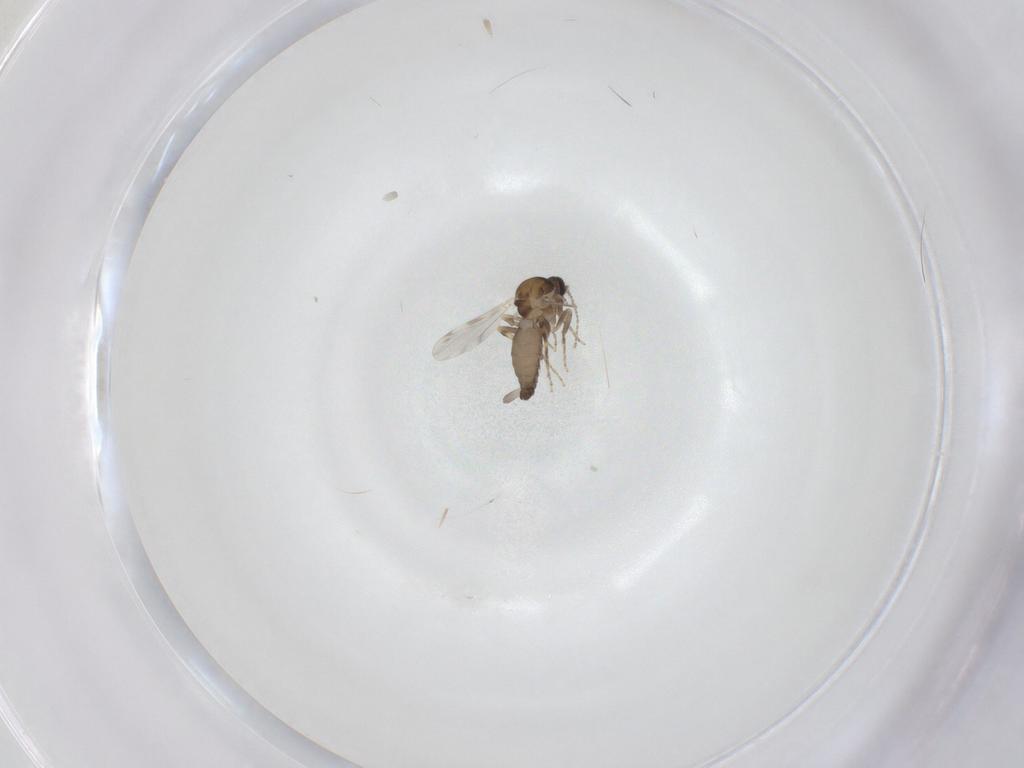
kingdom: Animalia
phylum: Arthropoda
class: Insecta
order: Diptera
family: Ceratopogonidae
